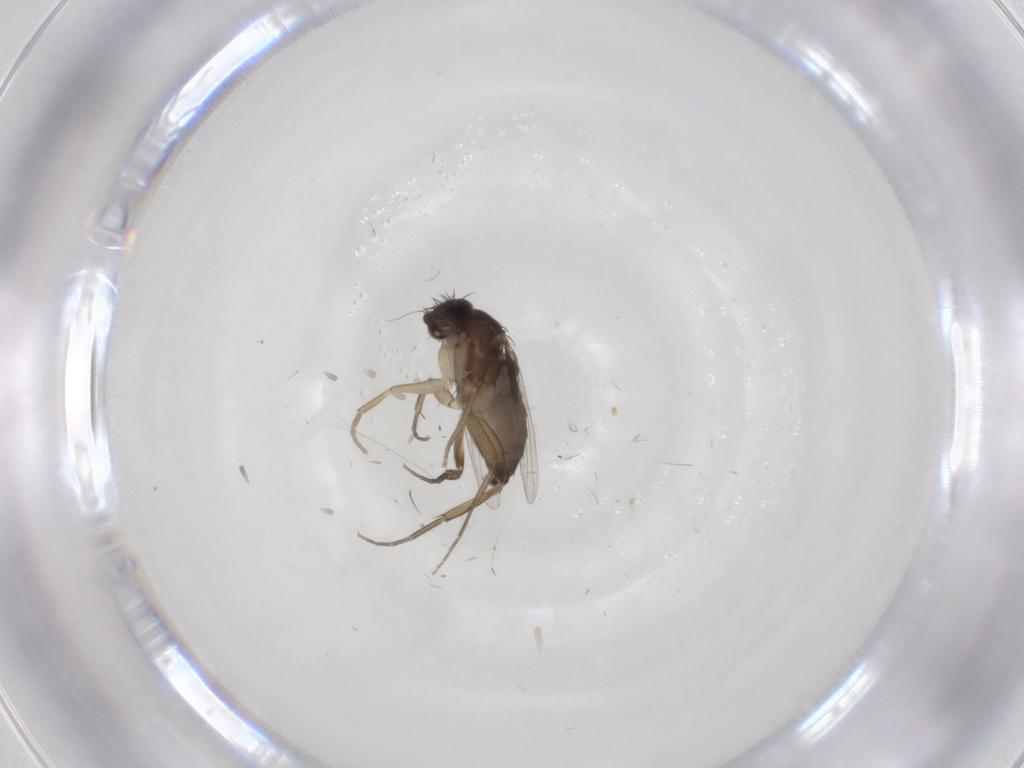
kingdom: Animalia
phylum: Arthropoda
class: Insecta
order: Diptera
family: Phoridae
